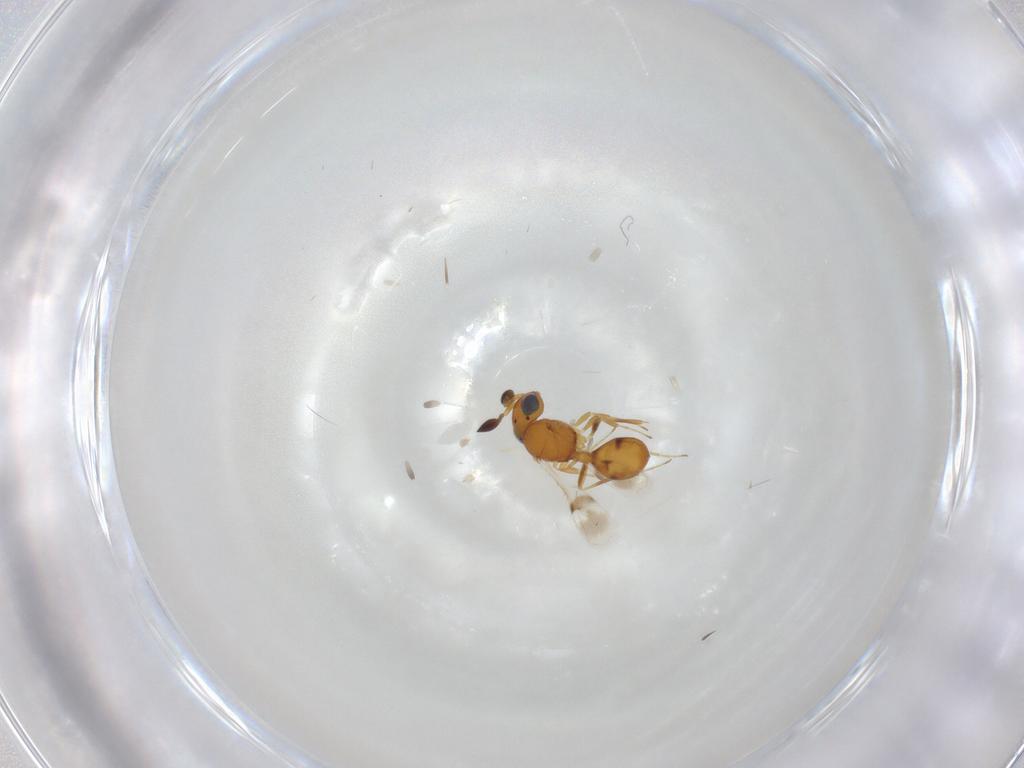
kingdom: Animalia
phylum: Arthropoda
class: Insecta
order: Hymenoptera
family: Scelionidae
